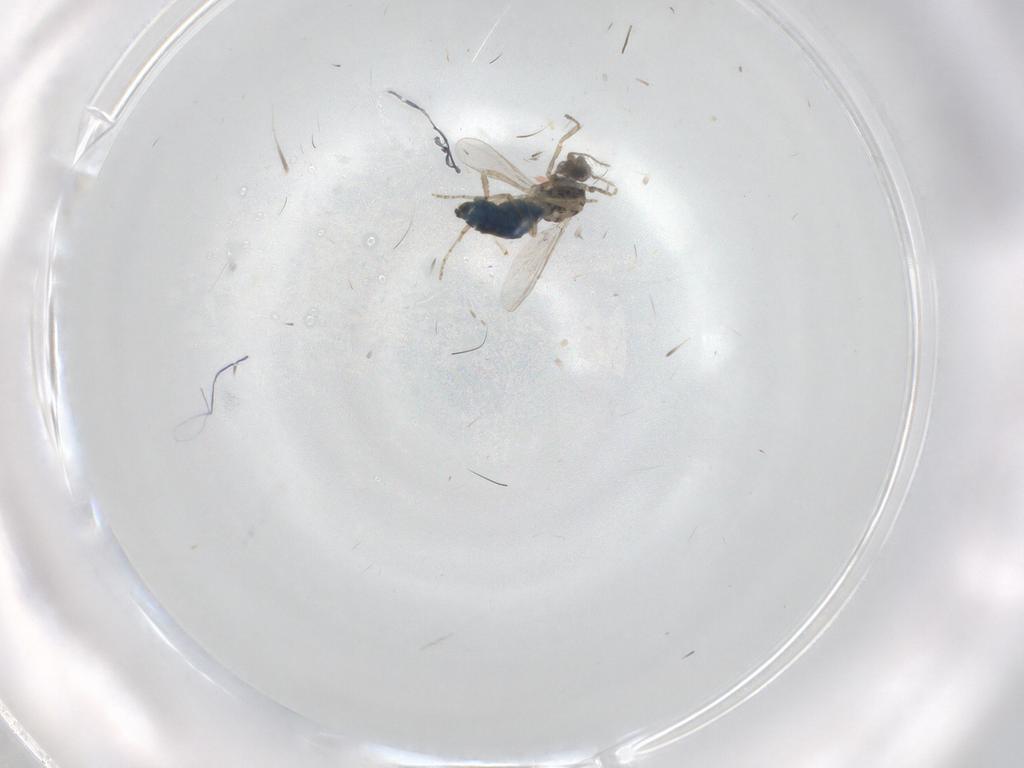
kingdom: Animalia
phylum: Arthropoda
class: Insecta
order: Diptera
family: Ceratopogonidae
